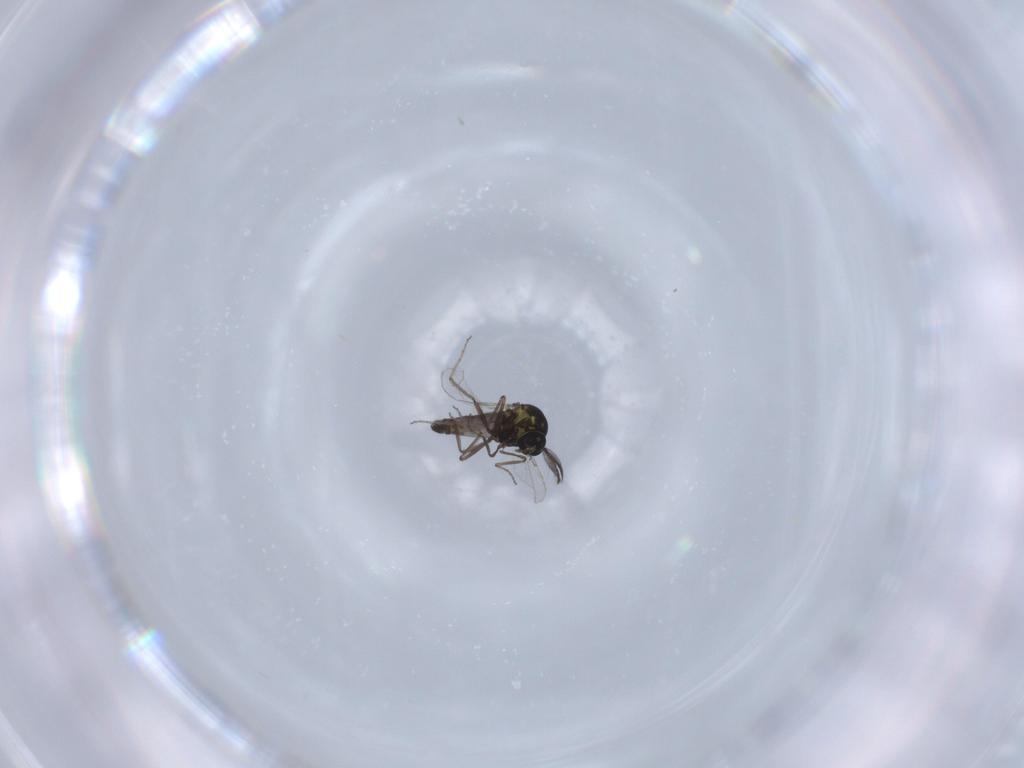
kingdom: Animalia
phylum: Arthropoda
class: Insecta
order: Diptera
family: Ceratopogonidae
